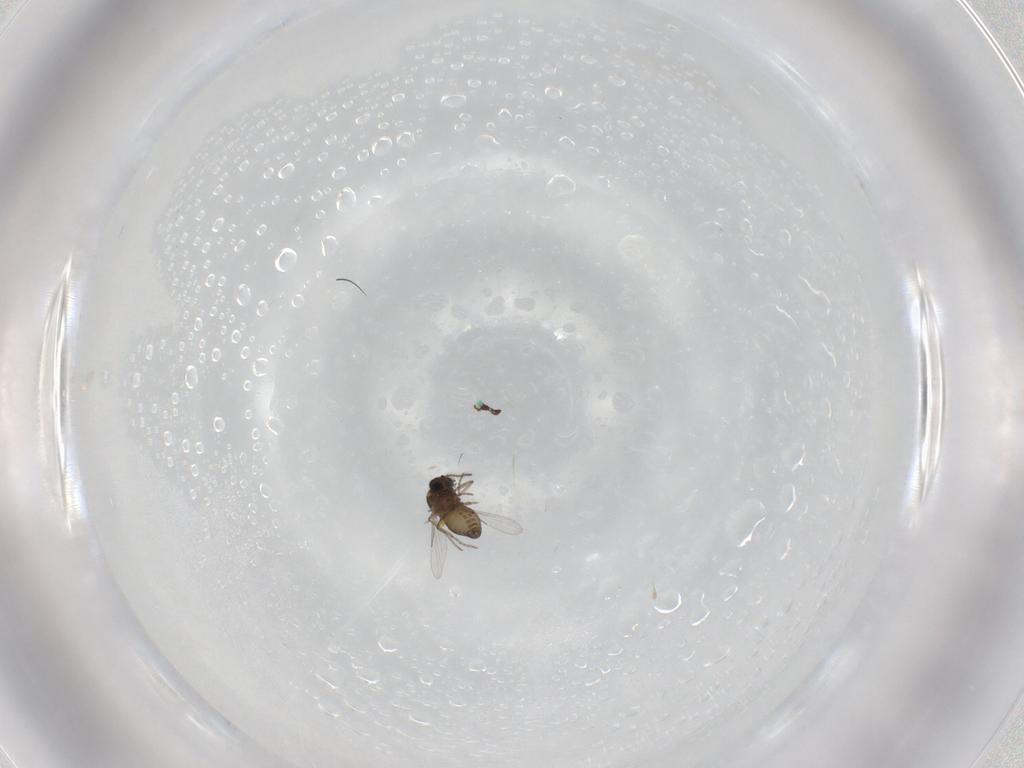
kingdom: Animalia
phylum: Arthropoda
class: Insecta
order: Diptera
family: Ceratopogonidae
